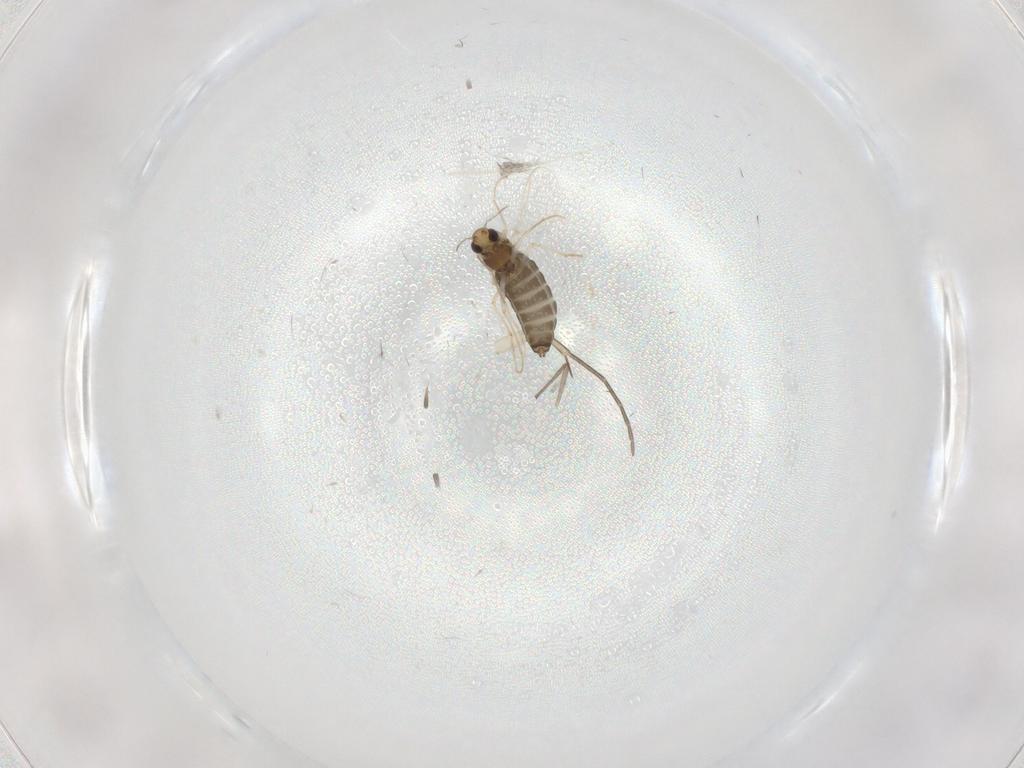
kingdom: Animalia
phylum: Arthropoda
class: Insecta
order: Diptera
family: Chironomidae
